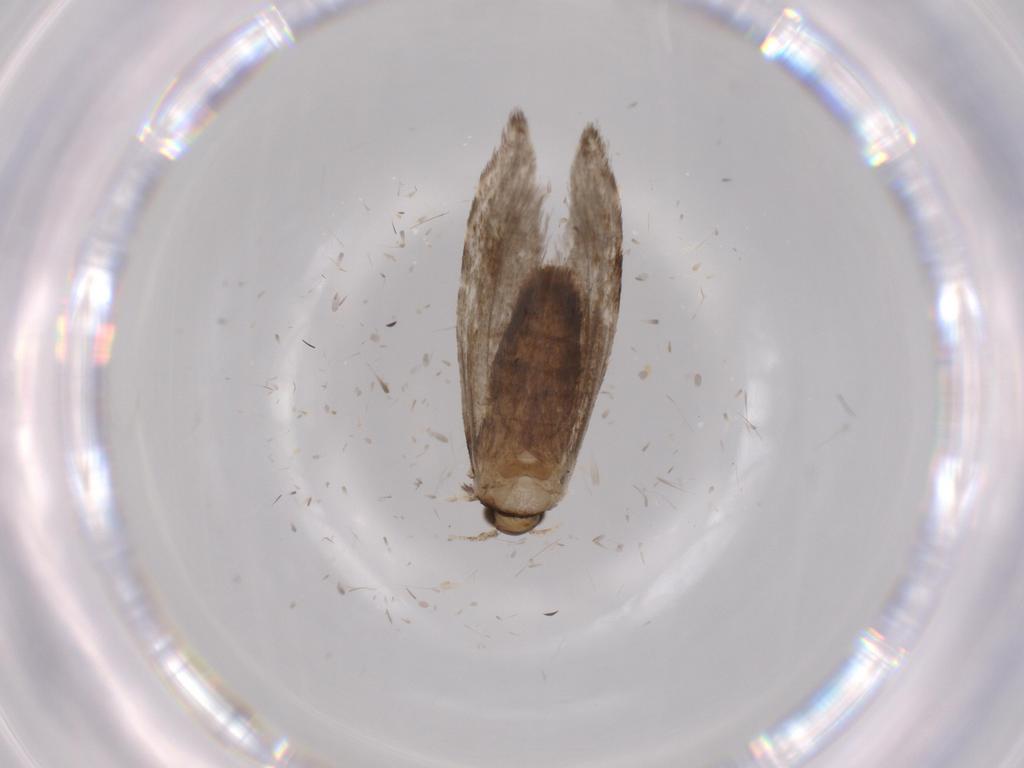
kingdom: Animalia
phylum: Arthropoda
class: Insecta
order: Lepidoptera
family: Tineidae
